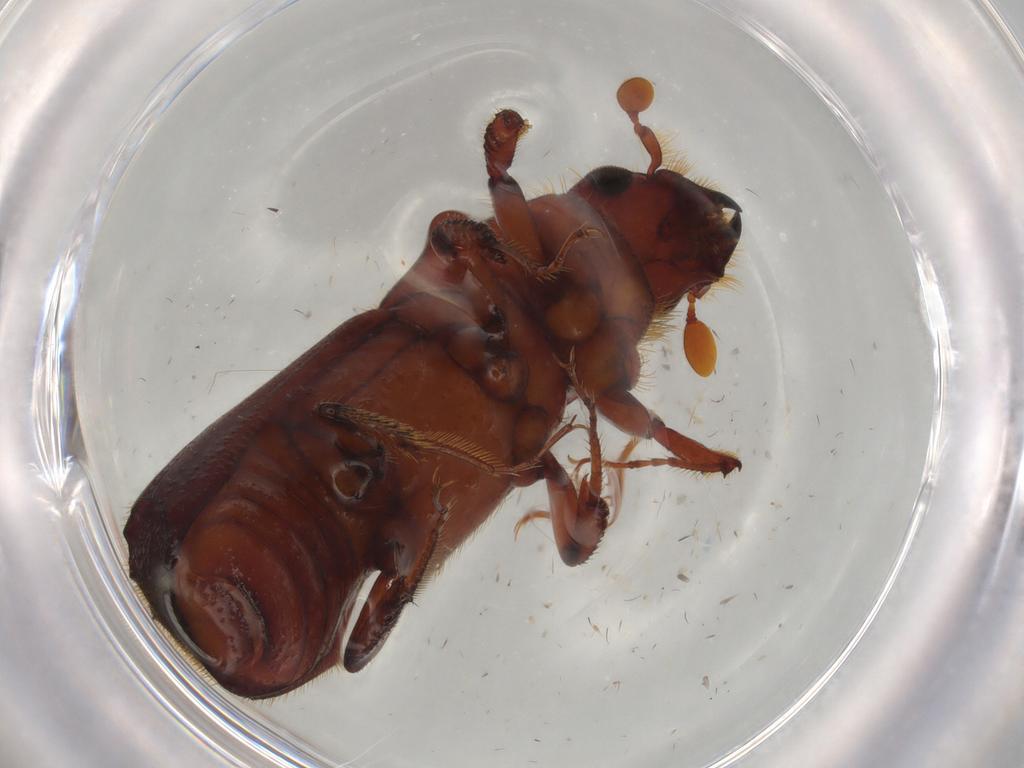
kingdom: Animalia
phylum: Arthropoda
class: Insecta
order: Coleoptera
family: Curculionidae
